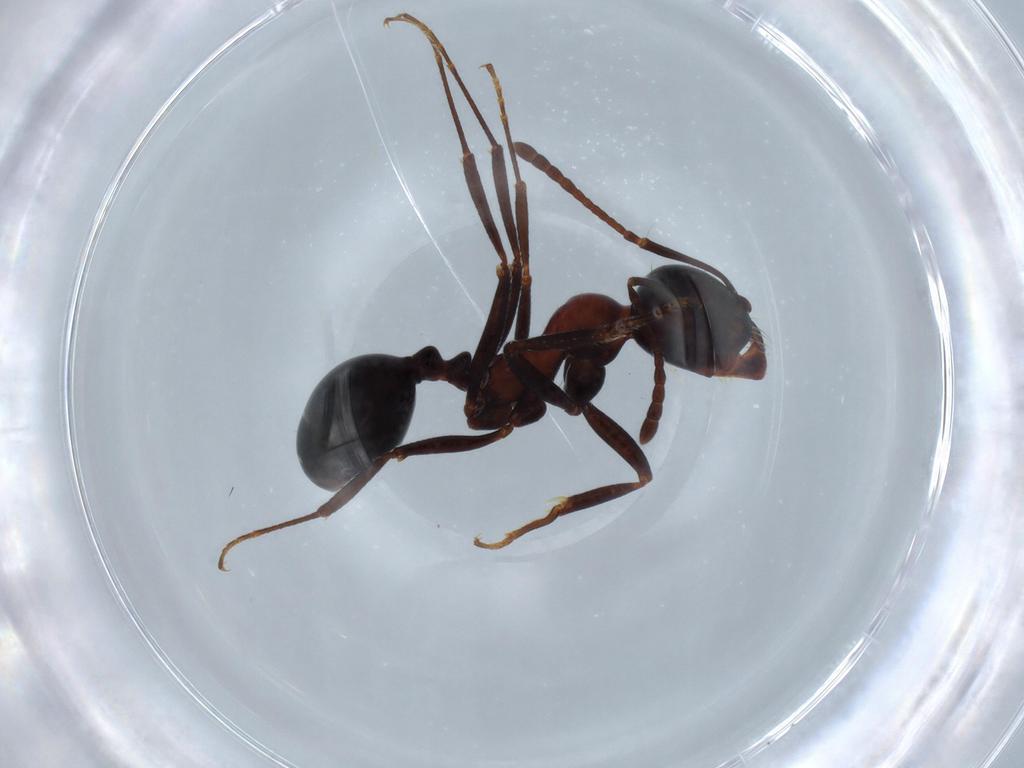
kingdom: Animalia
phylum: Arthropoda
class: Insecta
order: Hymenoptera
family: Formicidae
